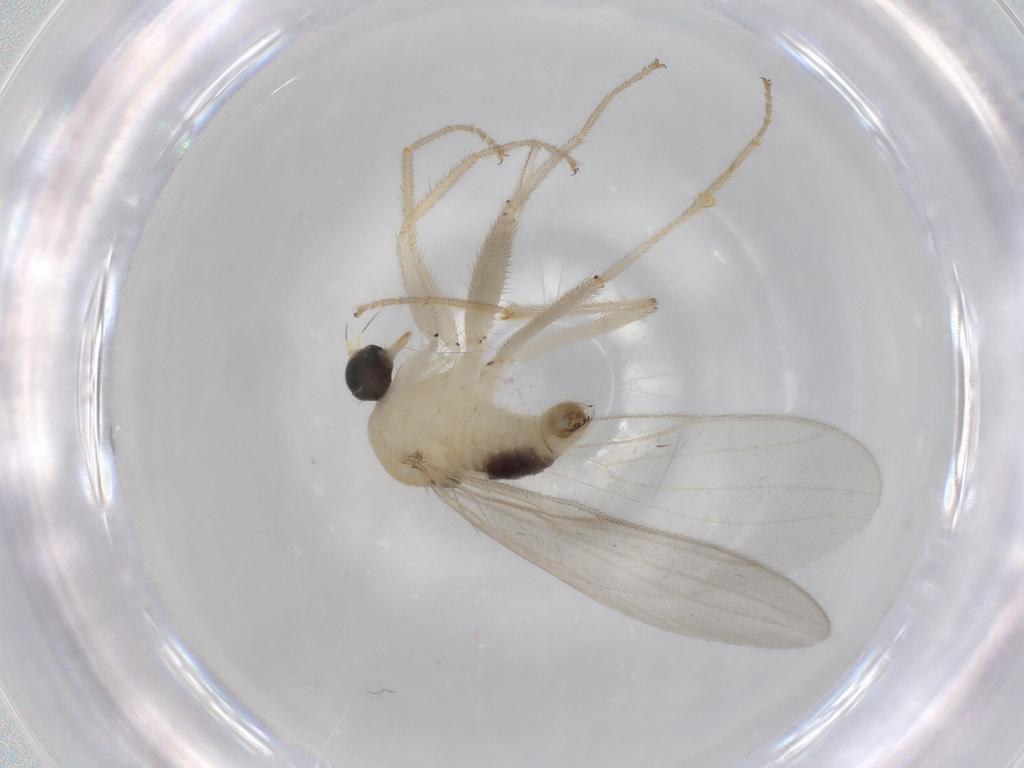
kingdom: Animalia
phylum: Arthropoda
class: Insecta
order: Diptera
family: Hybotidae
